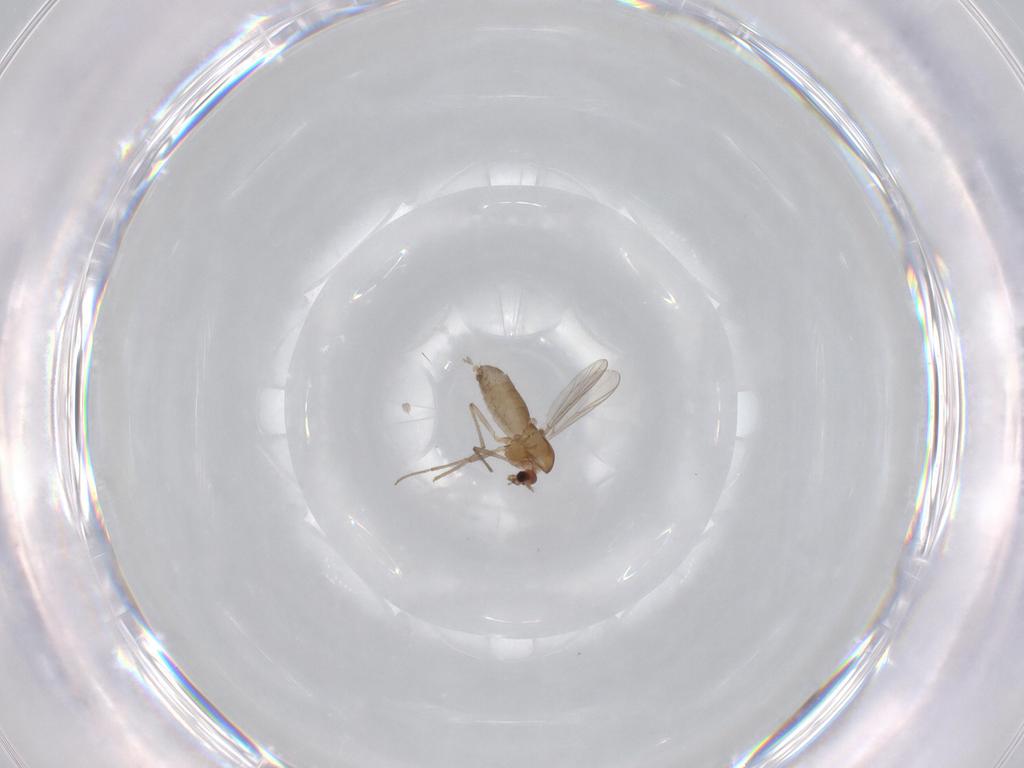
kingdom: Animalia
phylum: Arthropoda
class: Insecta
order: Diptera
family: Chironomidae
